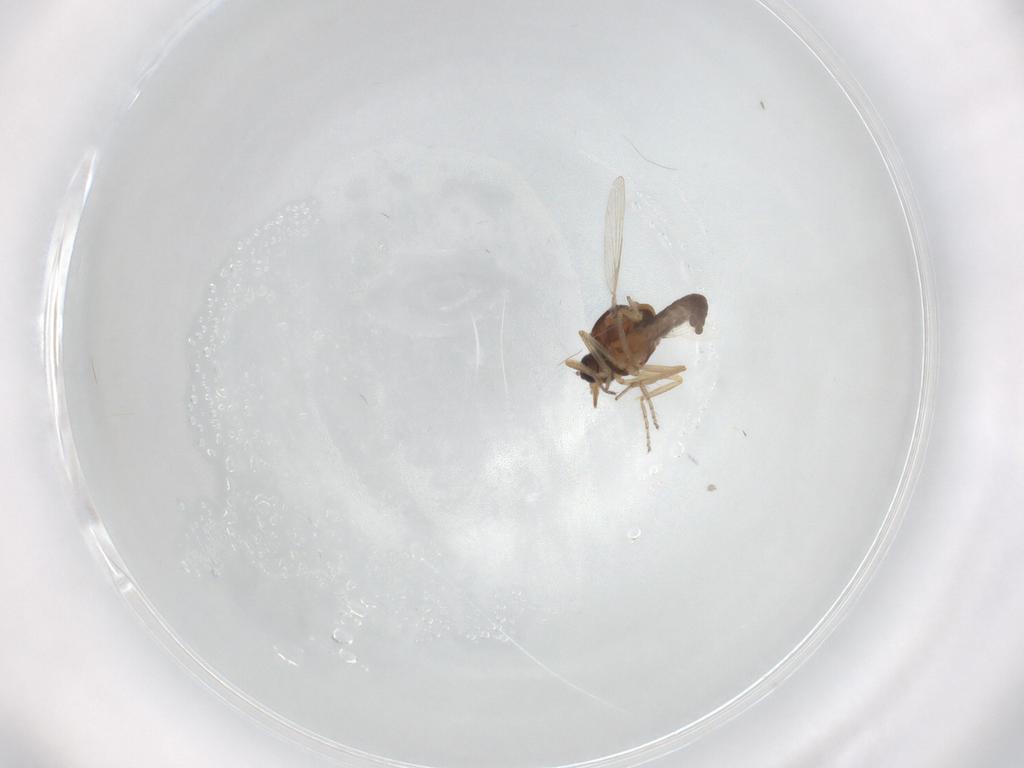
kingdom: Animalia
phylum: Arthropoda
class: Insecta
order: Diptera
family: Ceratopogonidae
